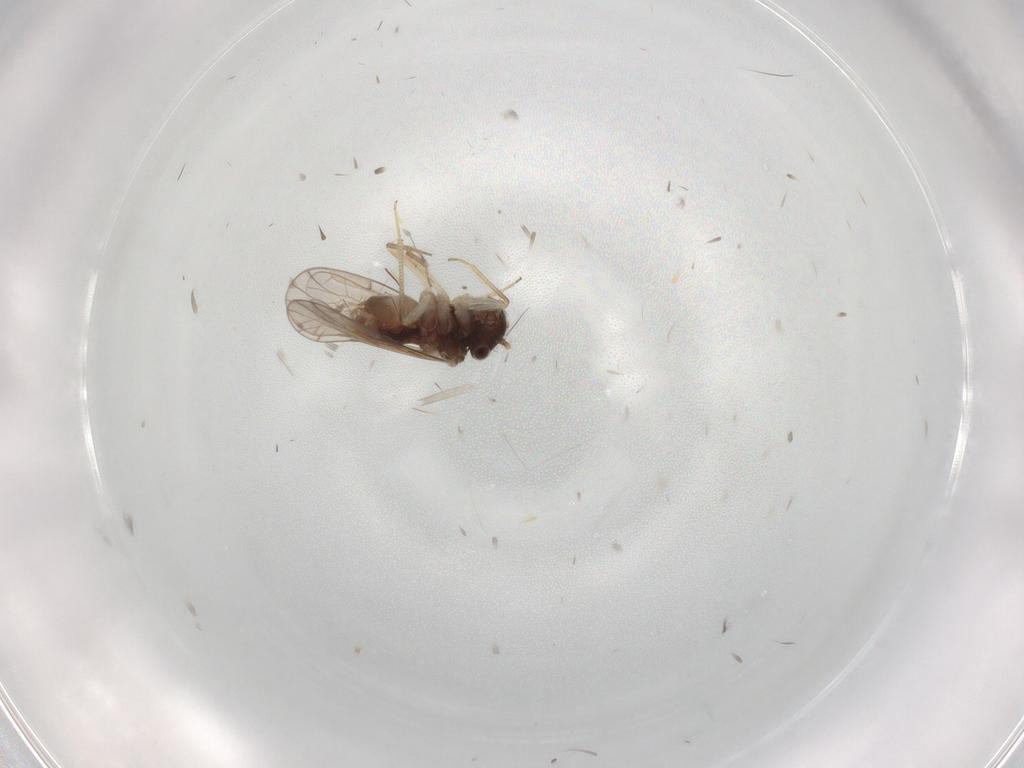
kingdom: Animalia
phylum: Arthropoda
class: Insecta
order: Psocodea
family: Ectopsocidae
